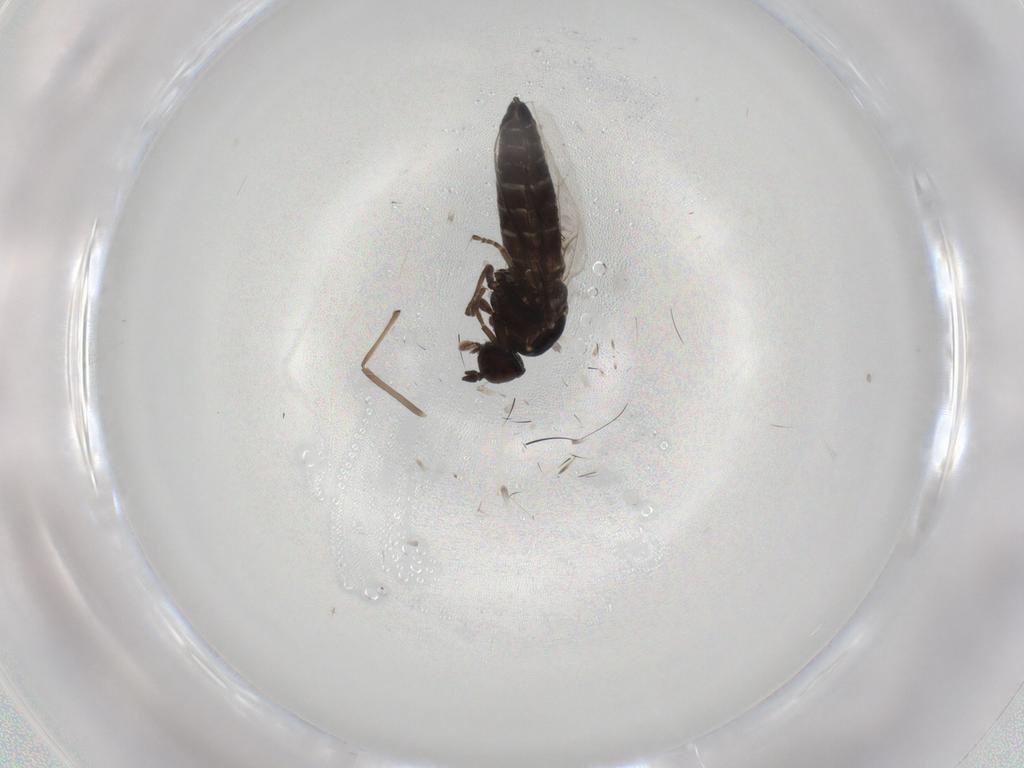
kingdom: Animalia
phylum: Arthropoda
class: Insecta
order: Diptera
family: Scenopinidae
